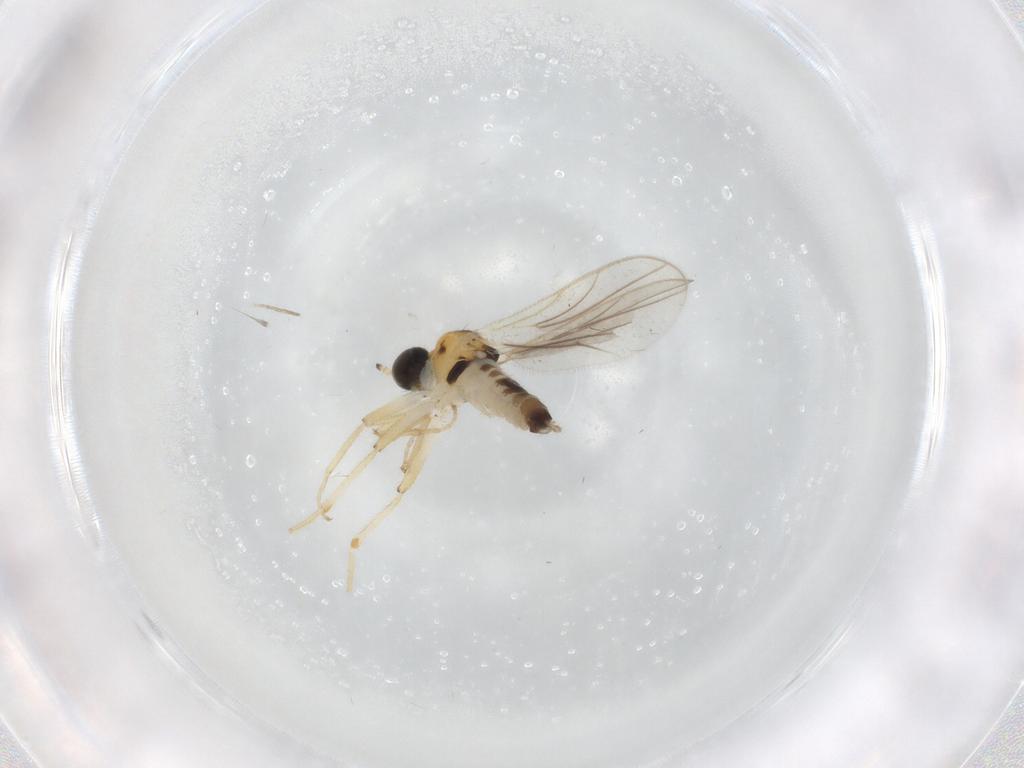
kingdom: Animalia
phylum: Arthropoda
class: Insecta
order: Diptera
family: Hybotidae
